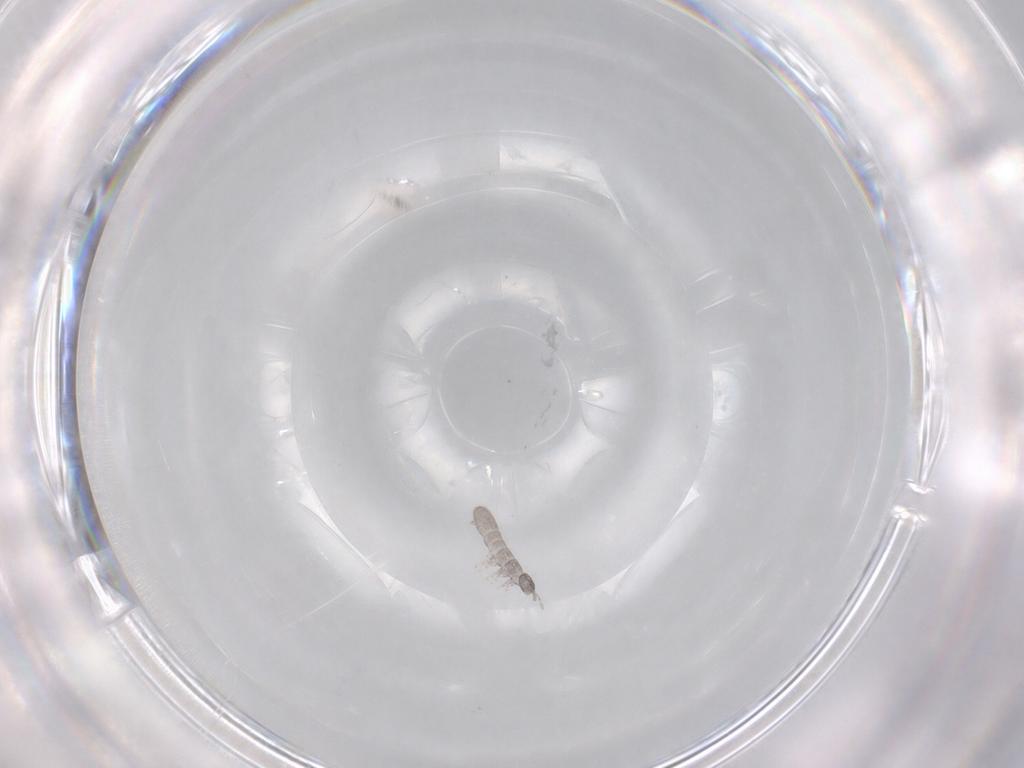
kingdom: Animalia
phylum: Arthropoda
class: Collembola
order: Entomobryomorpha
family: Isotomidae
